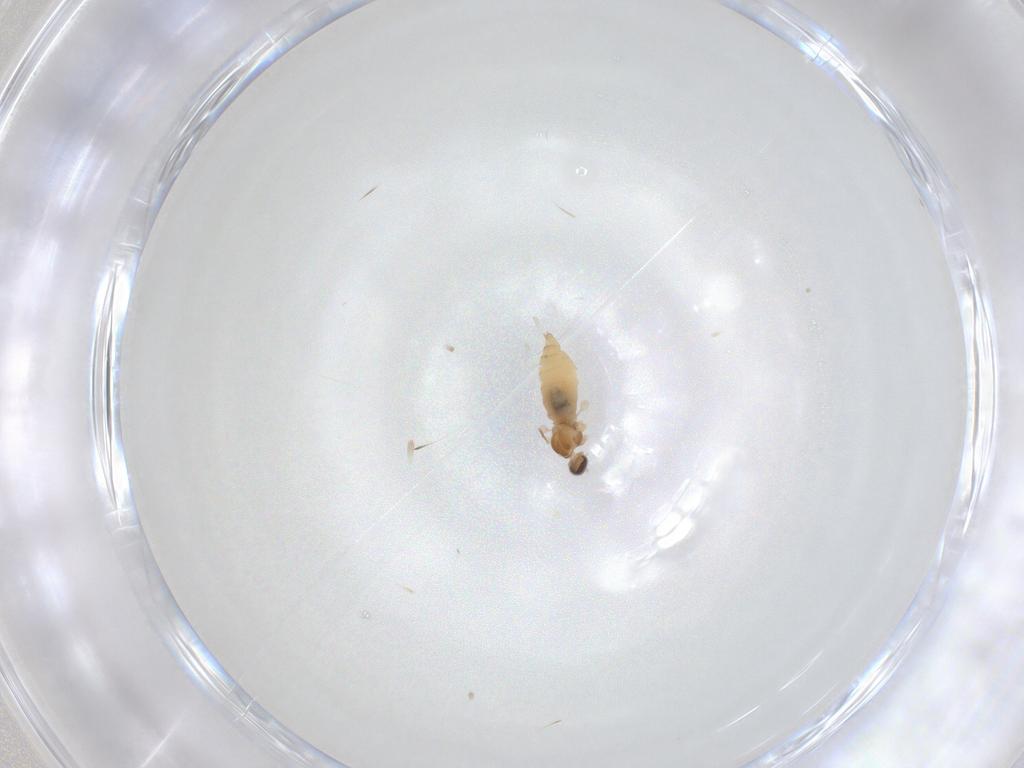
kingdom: Animalia
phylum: Arthropoda
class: Insecta
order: Diptera
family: Cecidomyiidae
